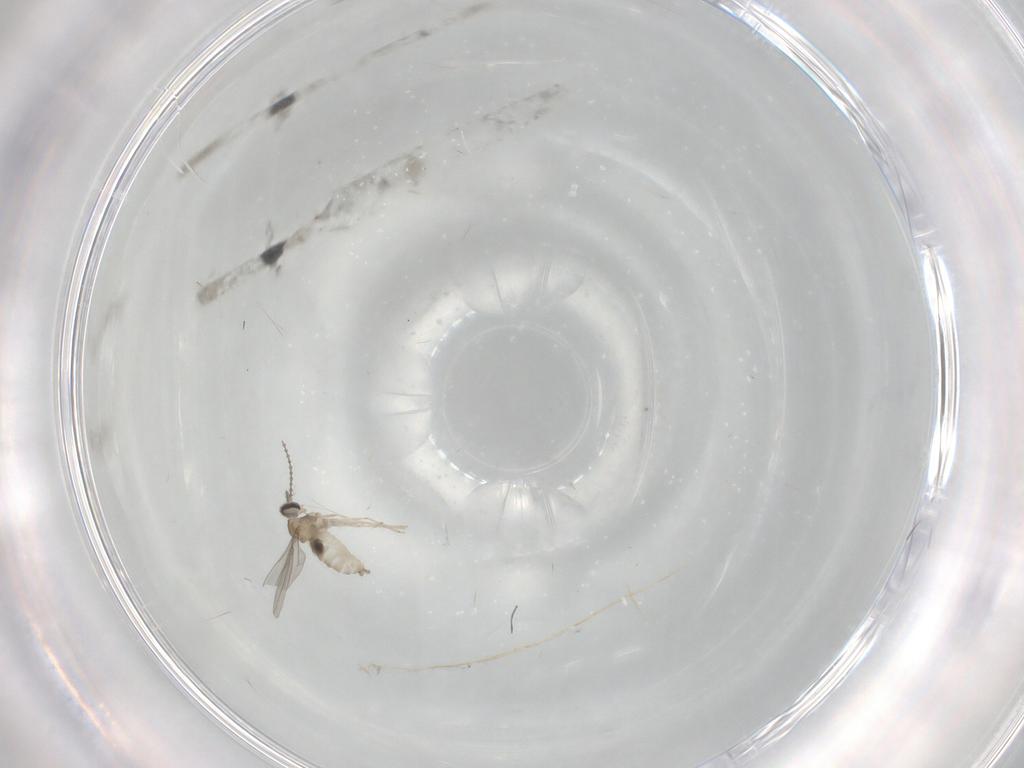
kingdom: Animalia
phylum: Arthropoda
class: Insecta
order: Diptera
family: Cecidomyiidae
